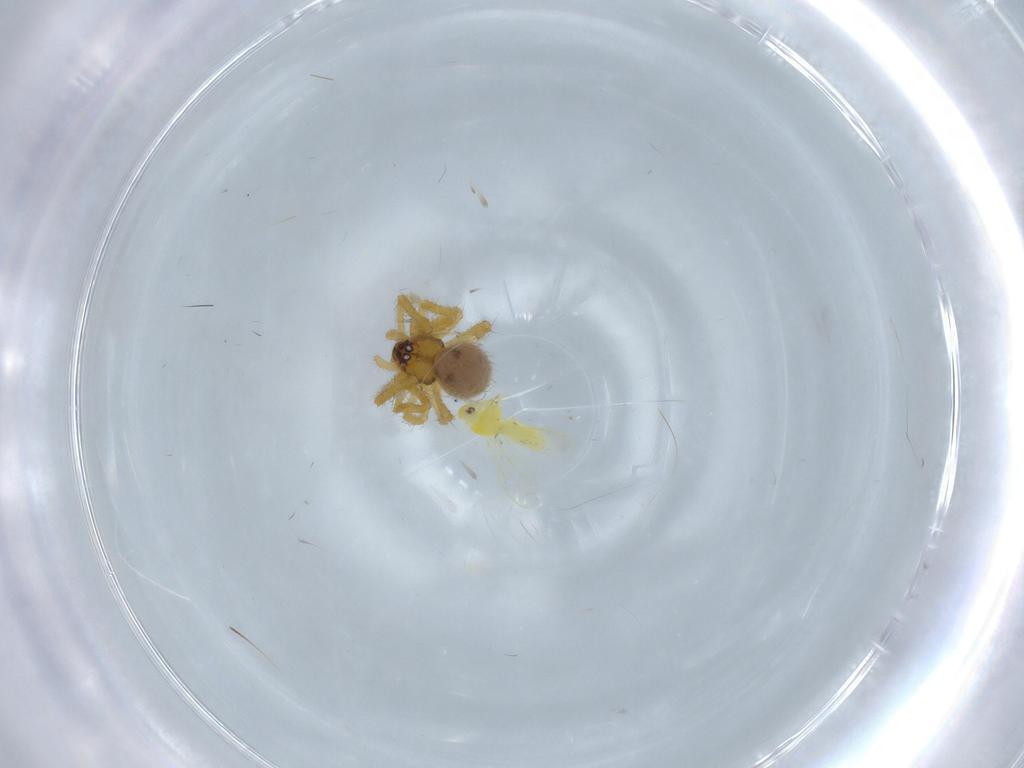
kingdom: Animalia
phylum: Arthropoda
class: Arachnida
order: Araneae
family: Theridiidae
